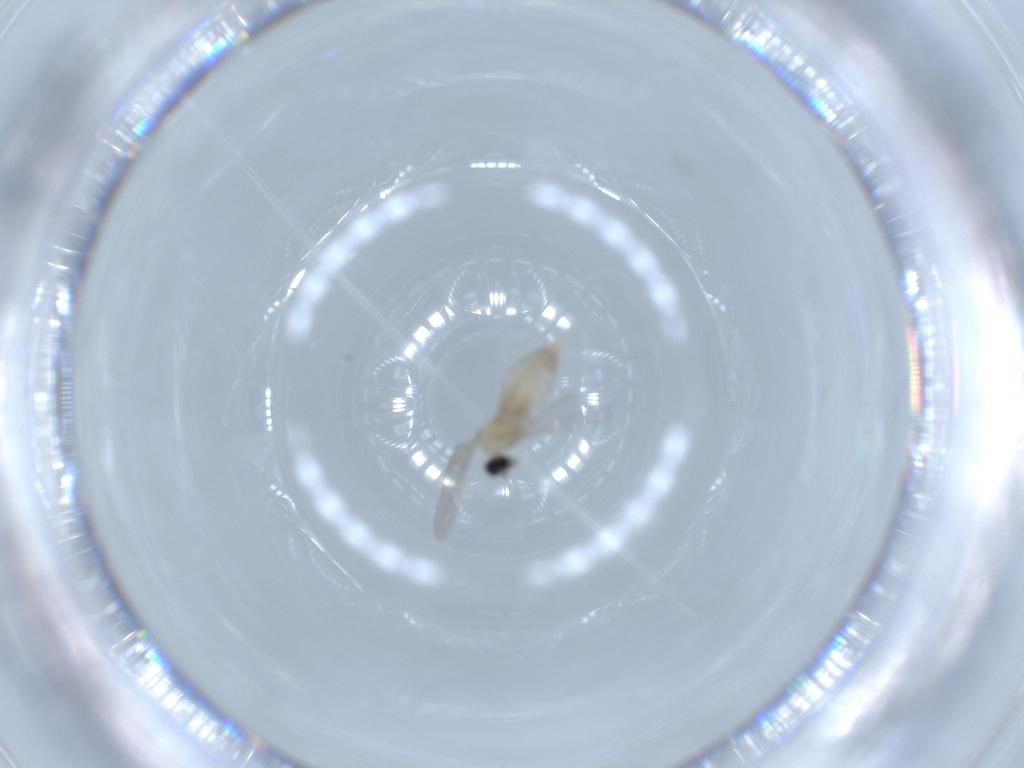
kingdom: Animalia
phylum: Arthropoda
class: Insecta
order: Diptera
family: Cecidomyiidae
